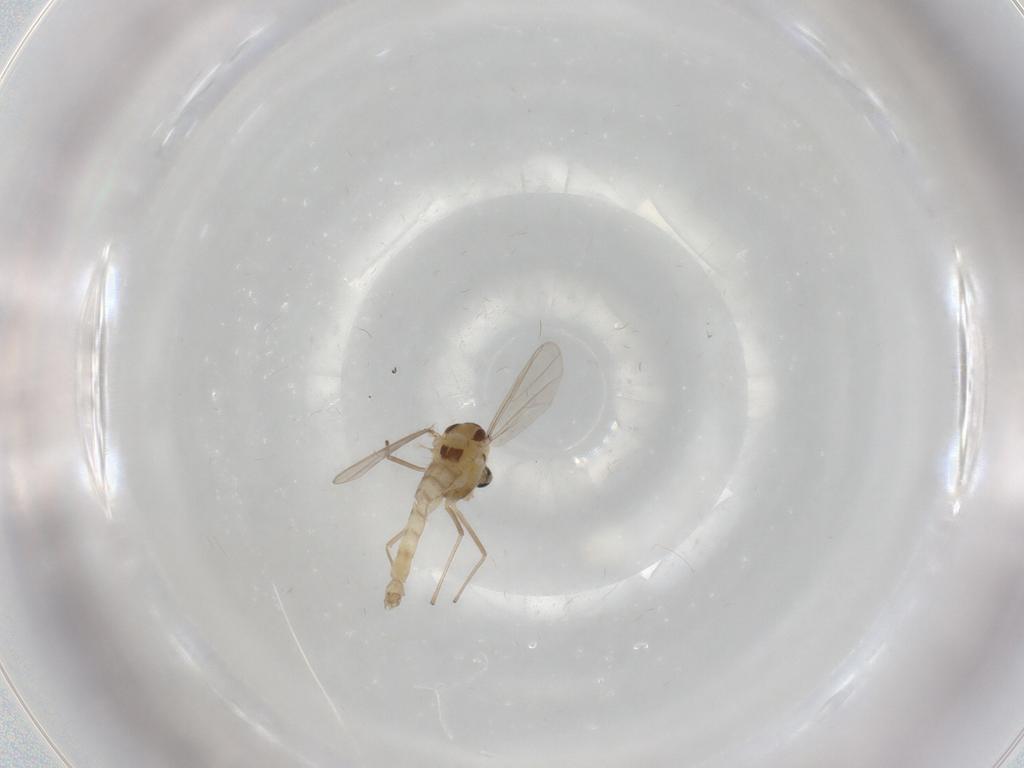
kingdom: Animalia
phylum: Arthropoda
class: Insecta
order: Diptera
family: Chironomidae
